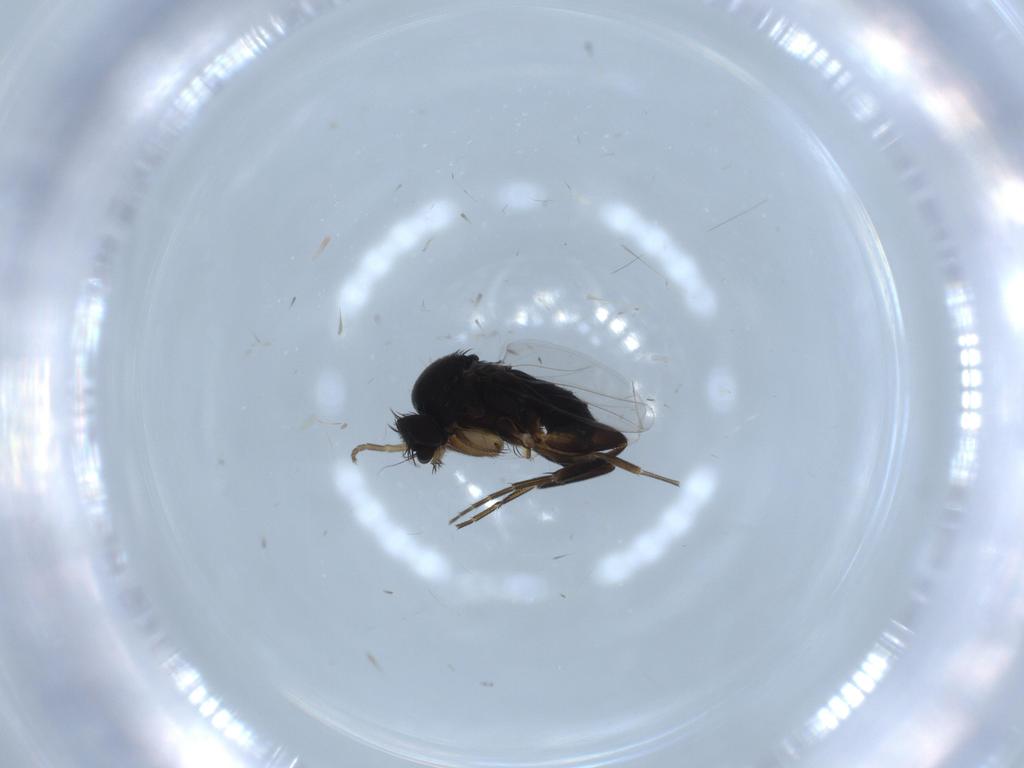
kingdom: Animalia
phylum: Arthropoda
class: Insecta
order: Diptera
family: Phoridae
